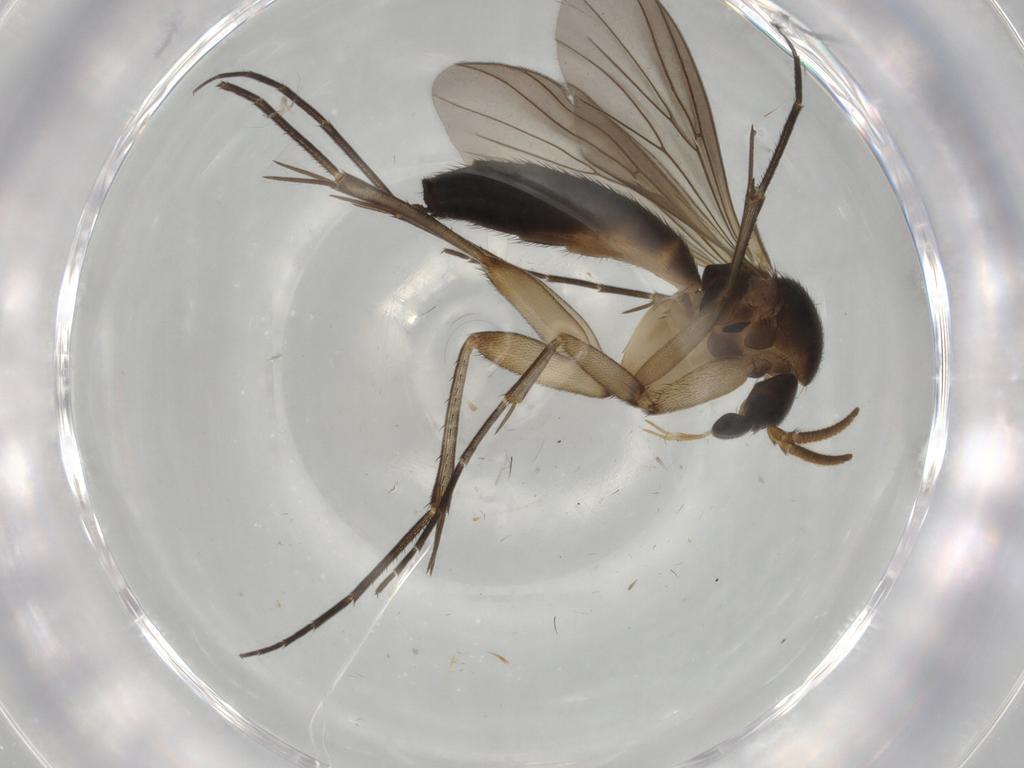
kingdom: Animalia
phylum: Arthropoda
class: Insecta
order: Diptera
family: Mycetophilidae
